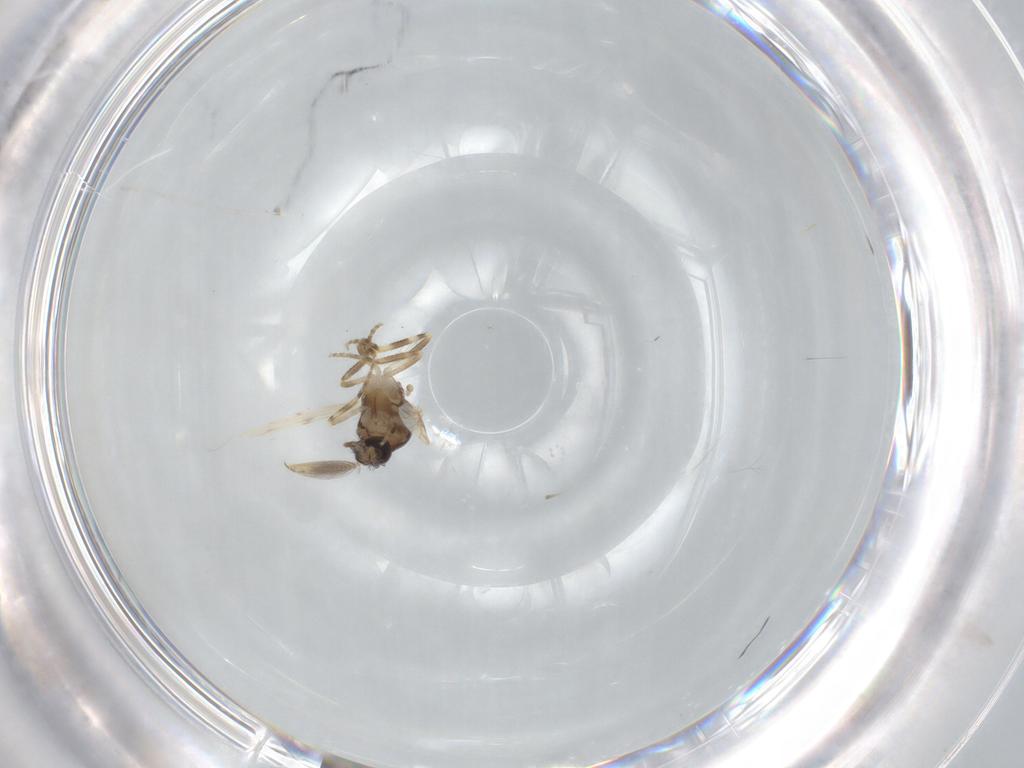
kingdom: Animalia
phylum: Arthropoda
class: Insecta
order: Diptera
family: Ceratopogonidae
